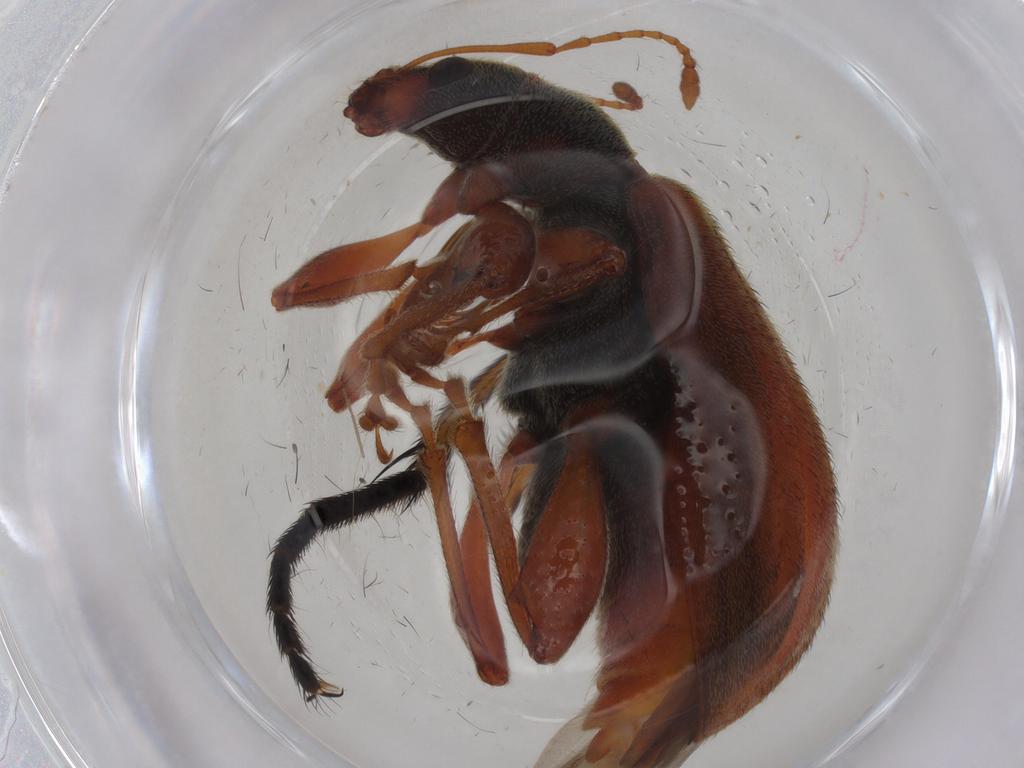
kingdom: Animalia
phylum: Arthropoda
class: Insecta
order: Coleoptera
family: Curculionidae
